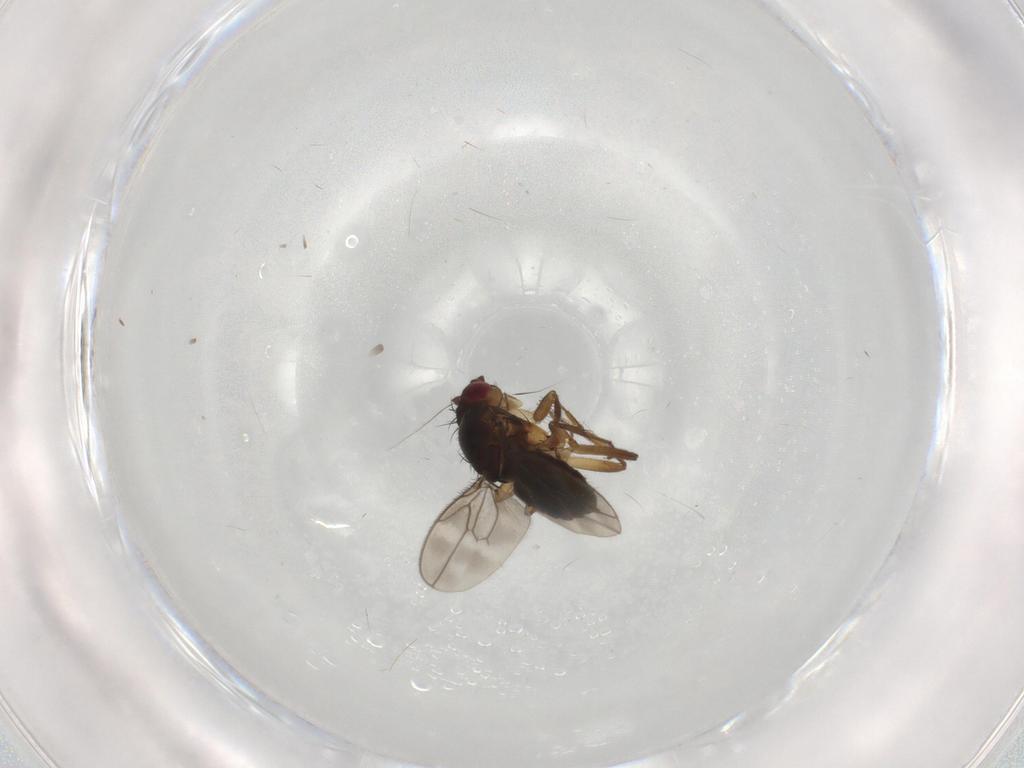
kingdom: Animalia
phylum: Arthropoda
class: Insecta
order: Diptera
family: Sphaeroceridae
